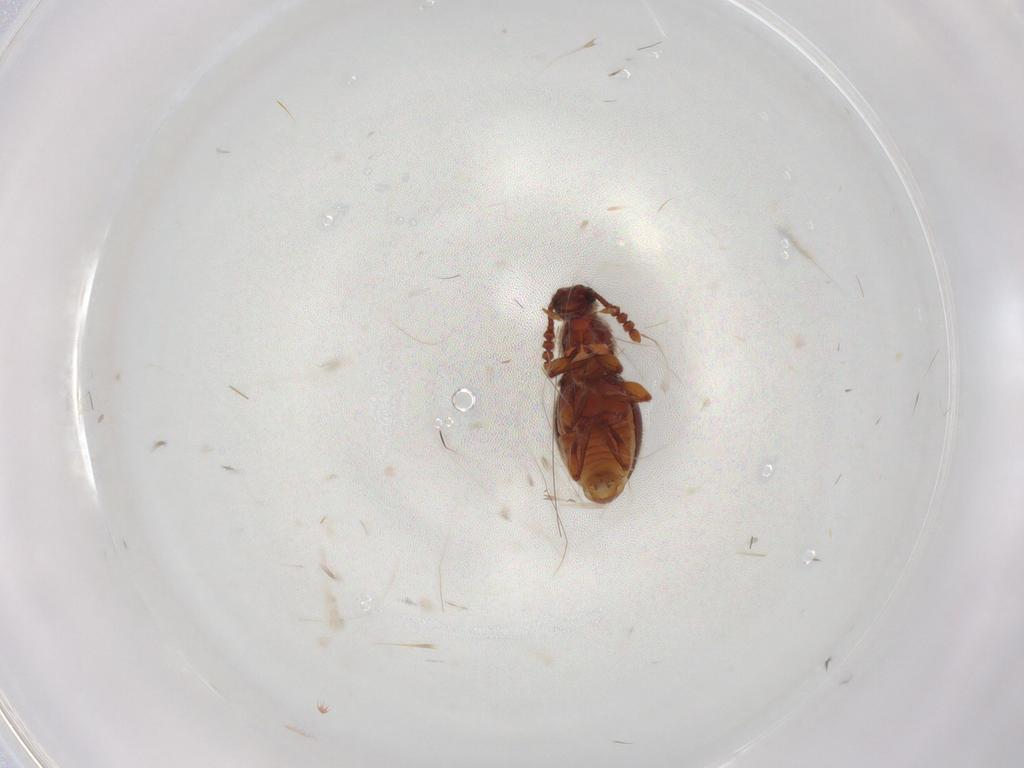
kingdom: Animalia
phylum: Arthropoda
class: Insecta
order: Coleoptera
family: Staphylinidae
